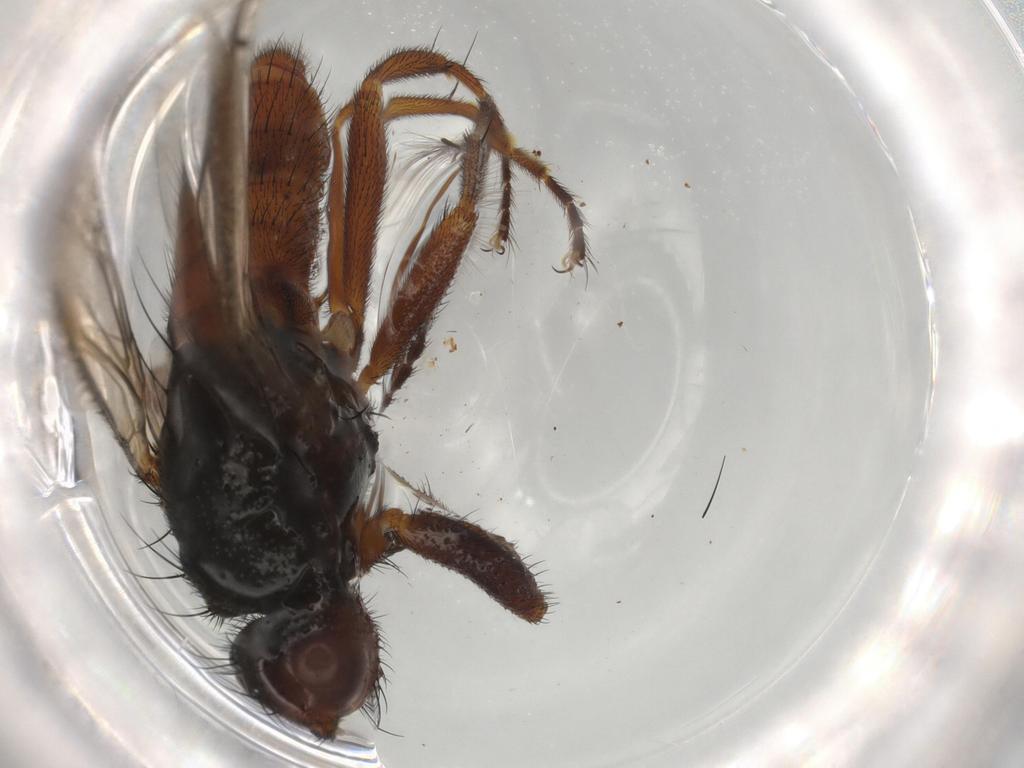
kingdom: Animalia
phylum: Arthropoda
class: Insecta
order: Diptera
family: Heleomyzidae
